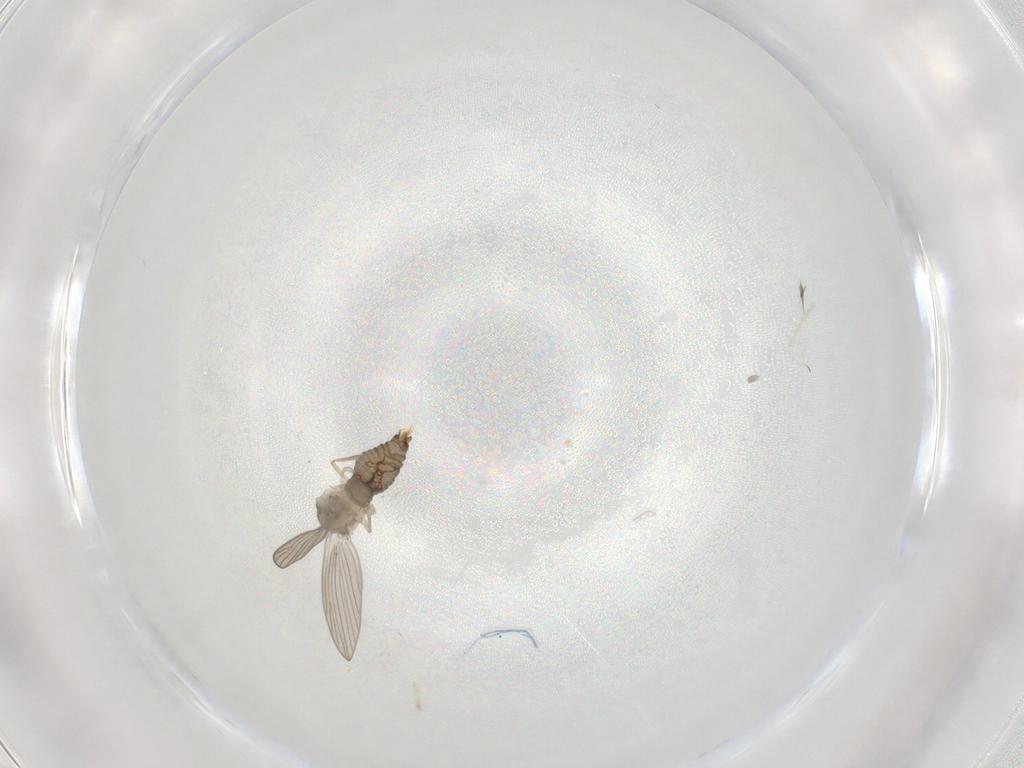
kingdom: Animalia
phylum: Arthropoda
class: Insecta
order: Diptera
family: Psychodidae
